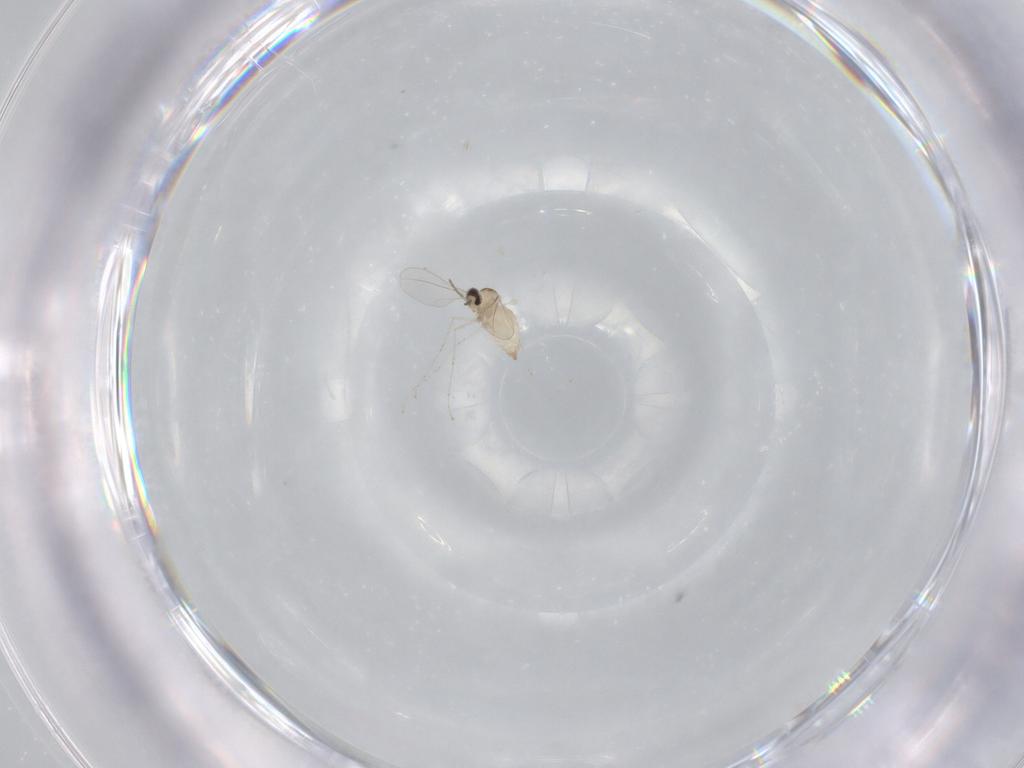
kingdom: Animalia
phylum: Arthropoda
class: Insecta
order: Diptera
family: Cecidomyiidae
